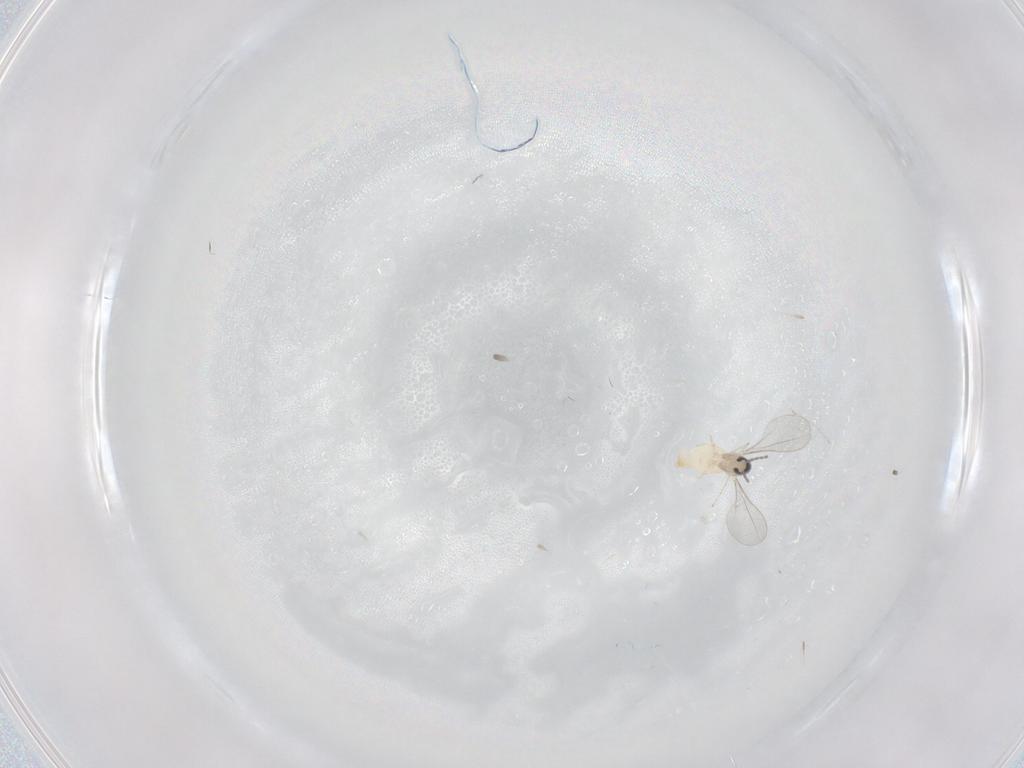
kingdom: Animalia
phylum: Arthropoda
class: Insecta
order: Diptera
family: Cecidomyiidae
